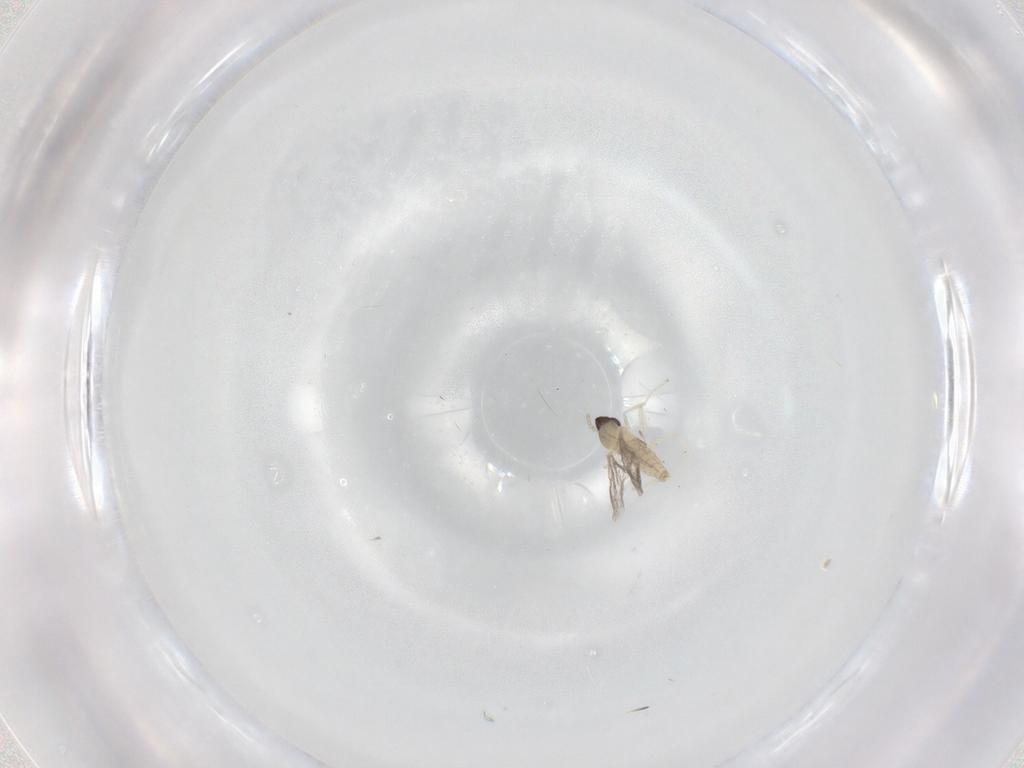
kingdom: Animalia
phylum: Arthropoda
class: Insecta
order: Diptera
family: Cecidomyiidae
